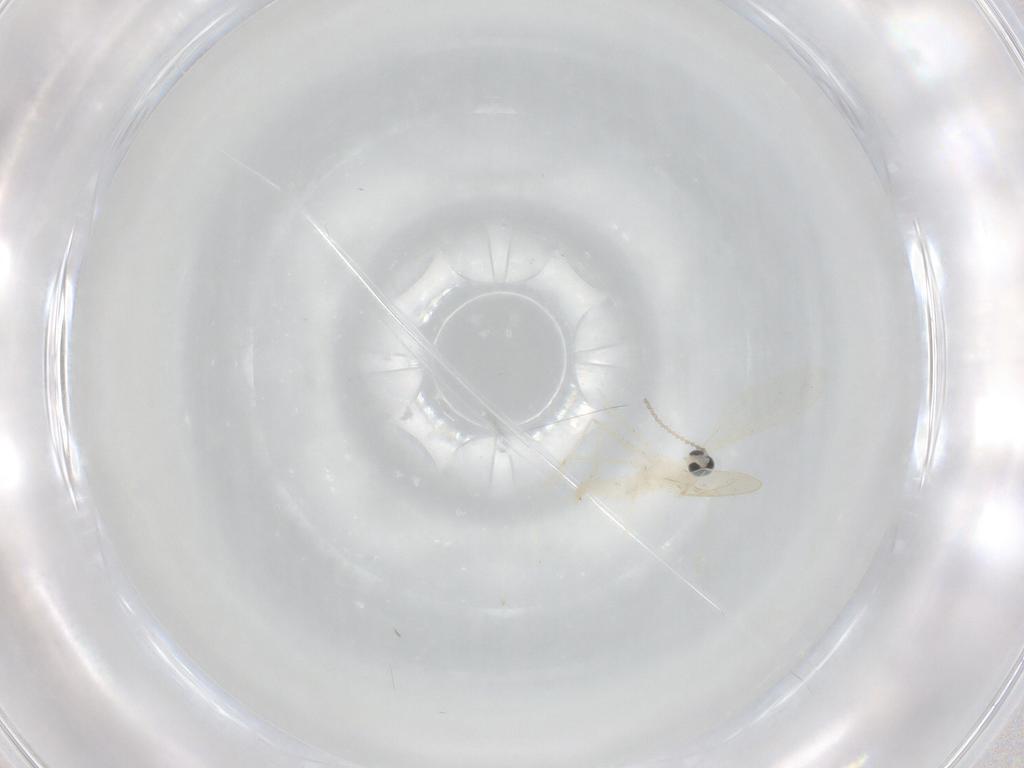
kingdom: Animalia
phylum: Arthropoda
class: Insecta
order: Diptera
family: Cecidomyiidae
